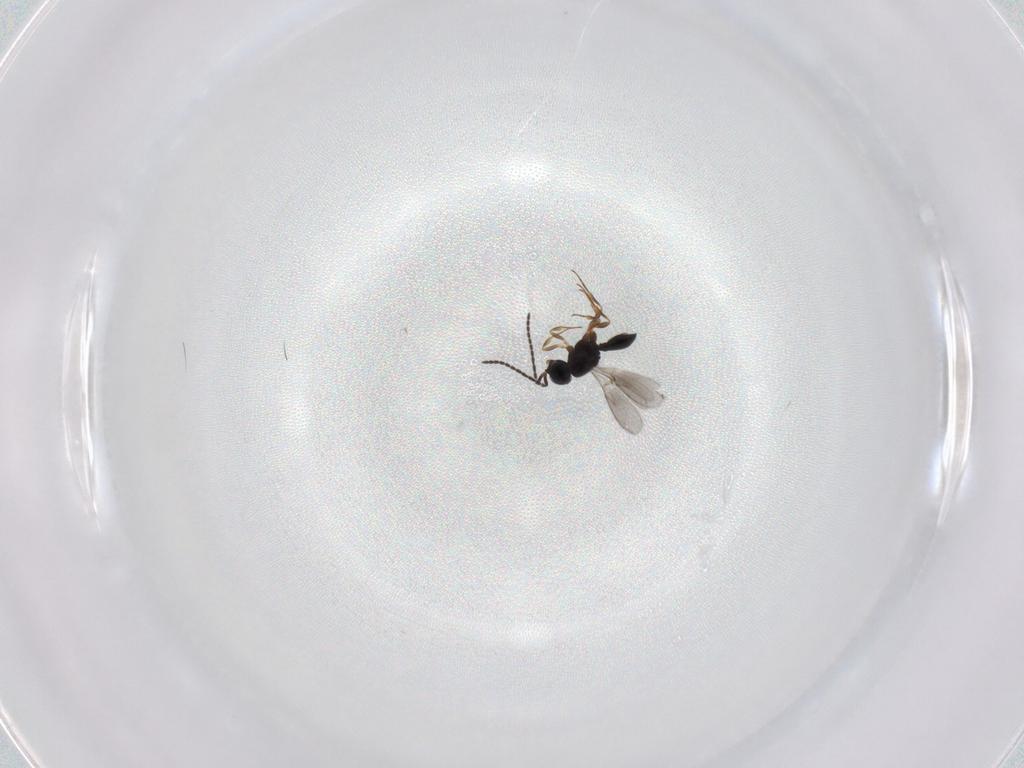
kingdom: Animalia
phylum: Arthropoda
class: Insecta
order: Hymenoptera
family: Scelionidae
